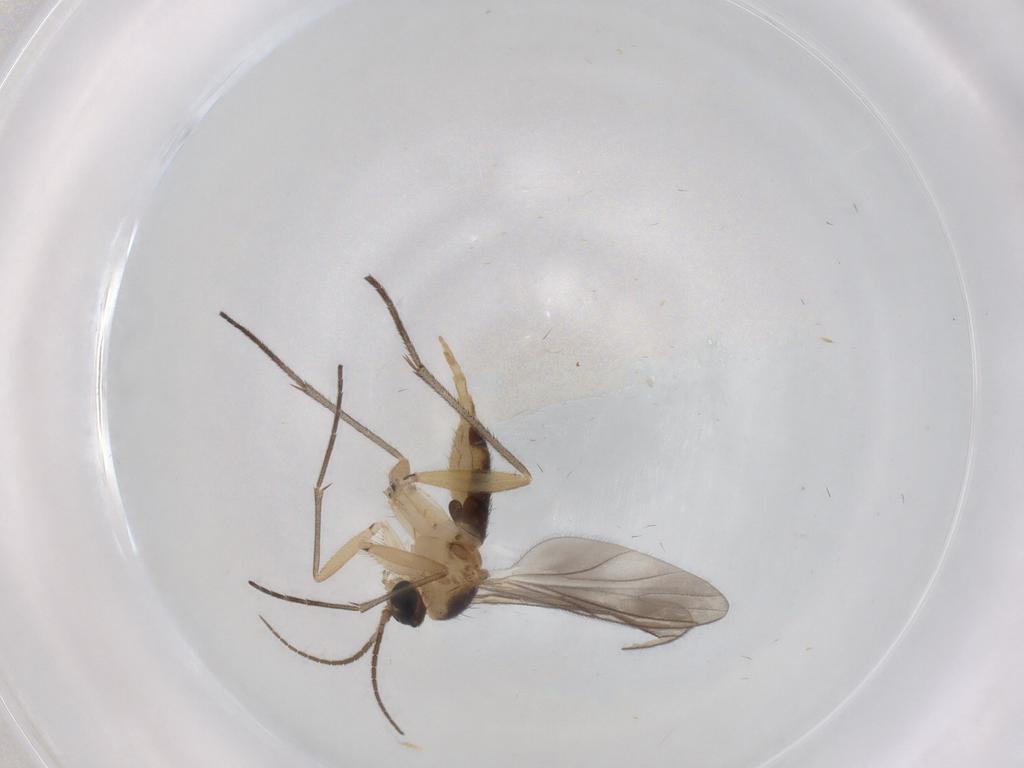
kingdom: Animalia
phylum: Arthropoda
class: Insecta
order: Diptera
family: Sciaridae
